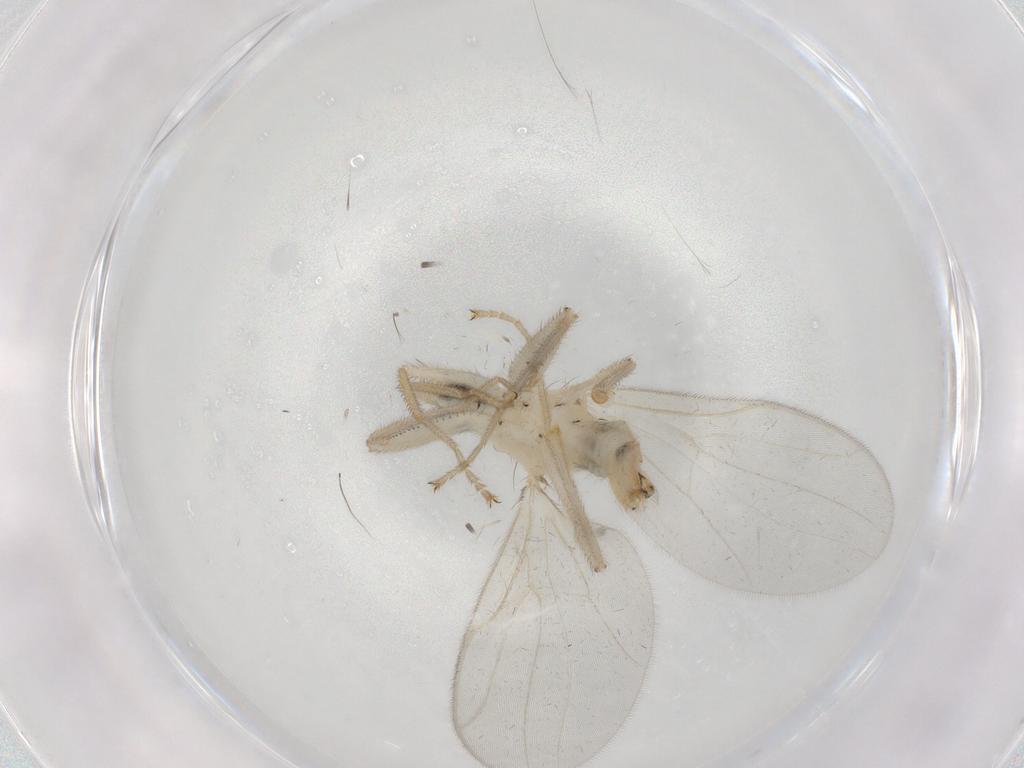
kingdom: Animalia
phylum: Arthropoda
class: Insecta
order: Diptera
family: Hybotidae
